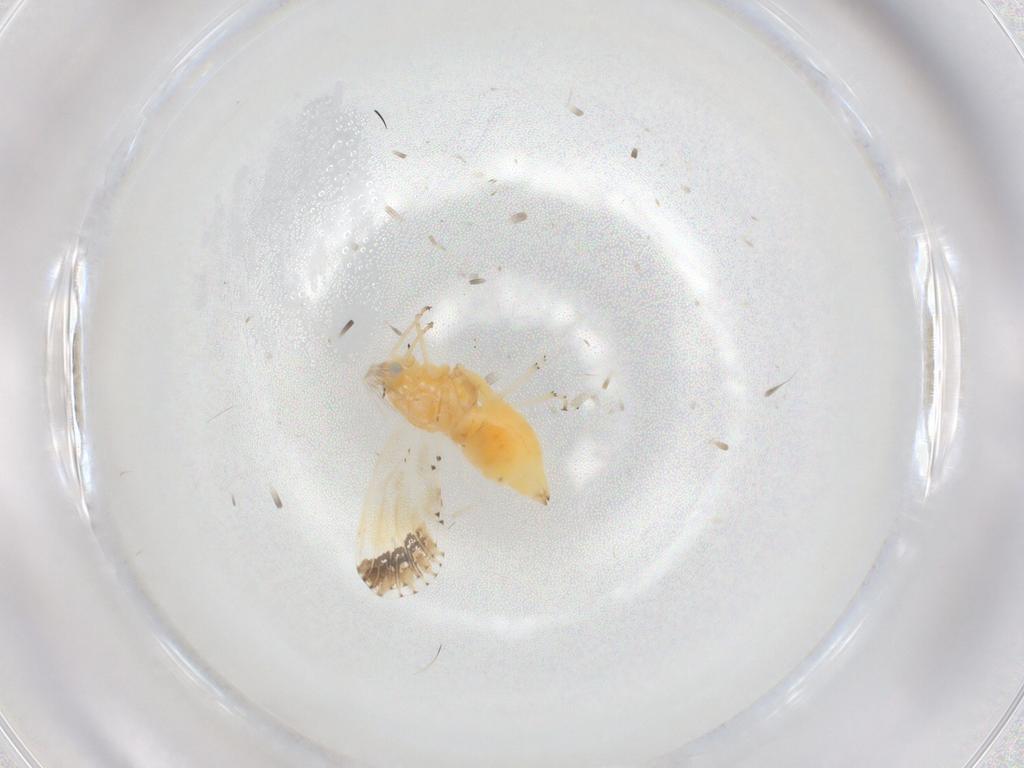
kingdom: Animalia
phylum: Arthropoda
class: Insecta
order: Hemiptera
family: Psyllidae
